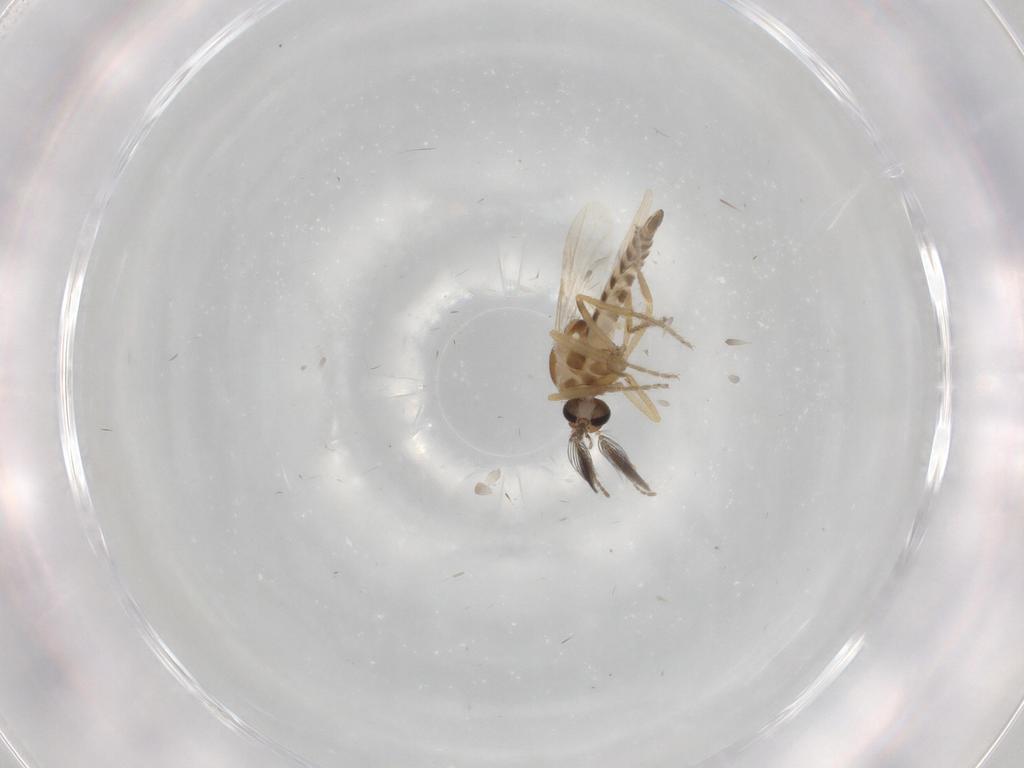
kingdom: Animalia
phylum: Arthropoda
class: Insecta
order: Diptera
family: Ceratopogonidae
